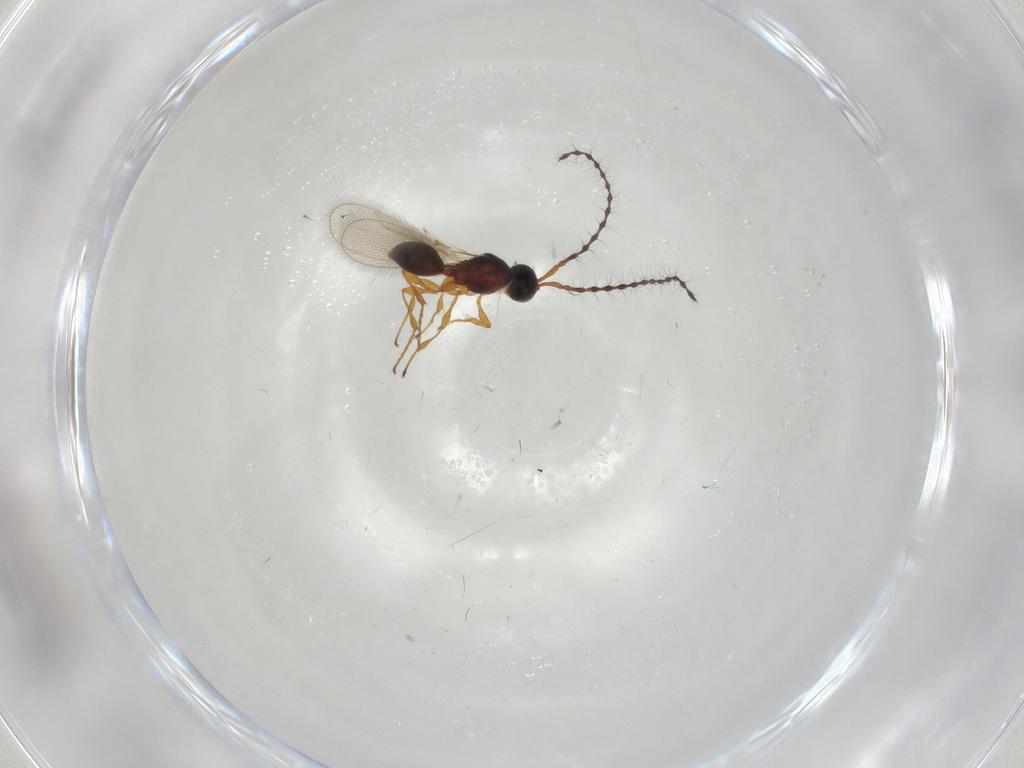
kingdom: Animalia
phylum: Arthropoda
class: Insecta
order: Hymenoptera
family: Diapriidae
